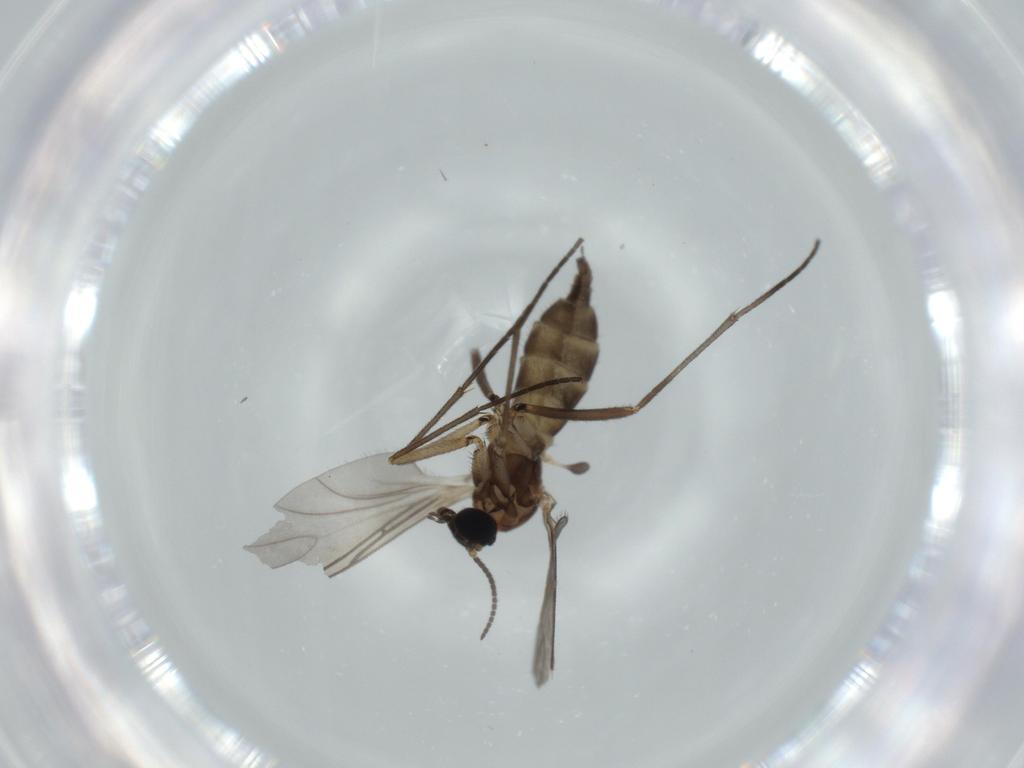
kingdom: Animalia
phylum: Arthropoda
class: Insecta
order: Diptera
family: Sciaridae
